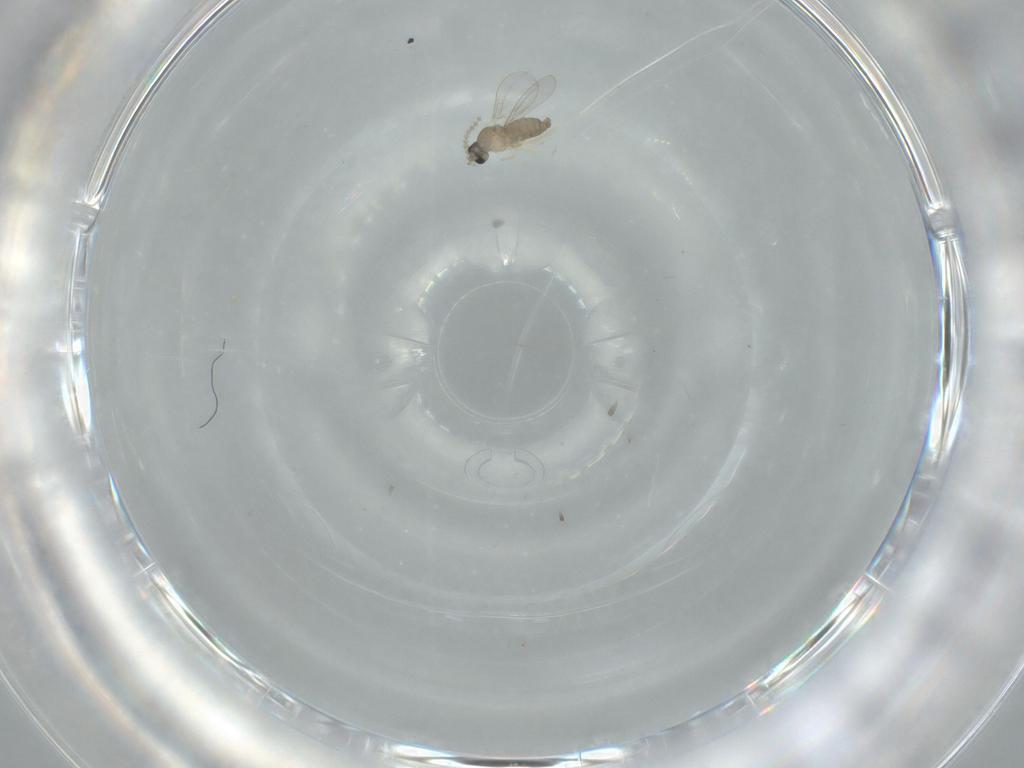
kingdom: Animalia
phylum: Arthropoda
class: Insecta
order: Diptera
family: Cecidomyiidae
